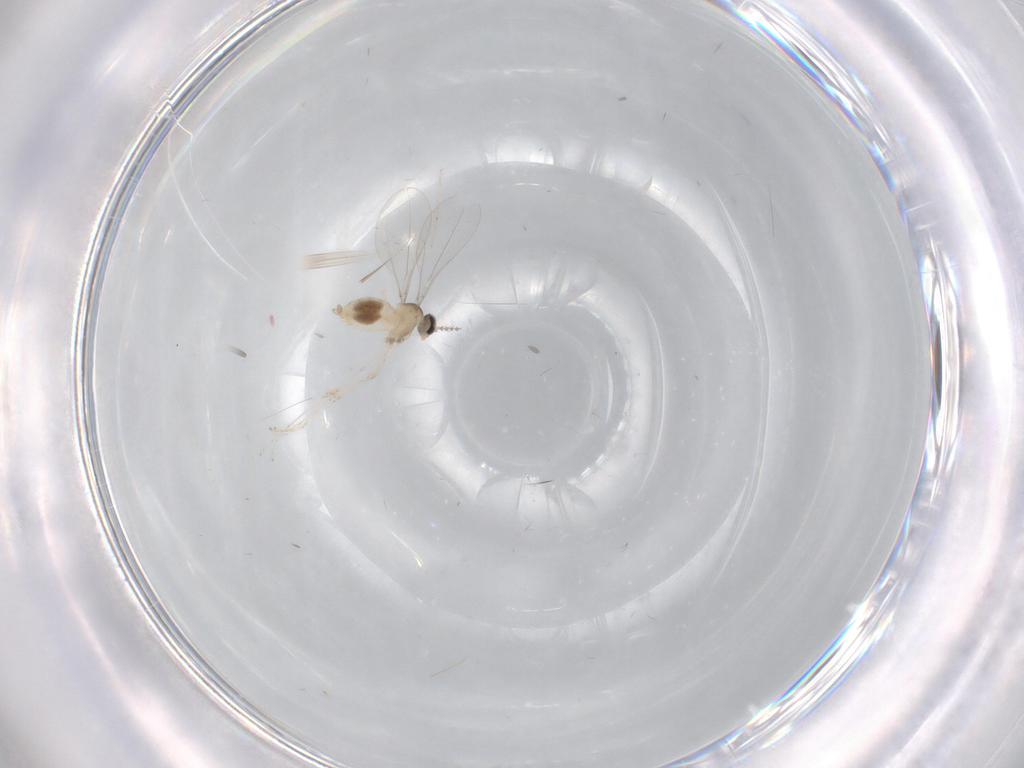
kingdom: Animalia
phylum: Arthropoda
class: Insecta
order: Diptera
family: Cecidomyiidae
